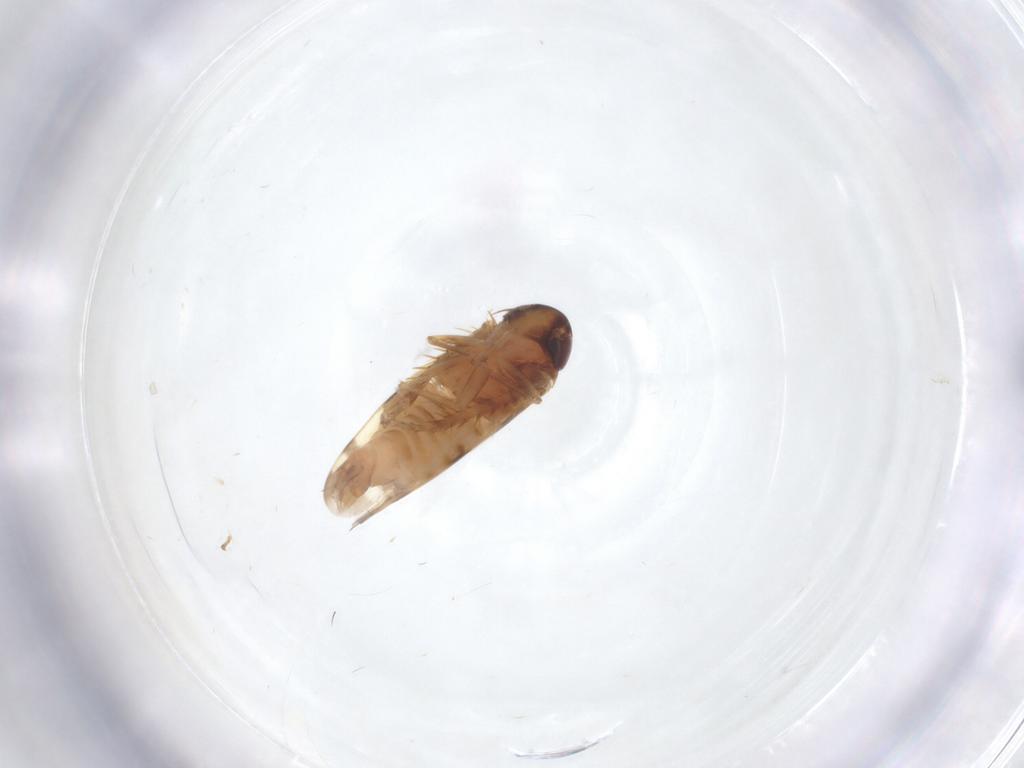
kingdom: Animalia
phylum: Arthropoda
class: Insecta
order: Hemiptera
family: Cicadellidae
